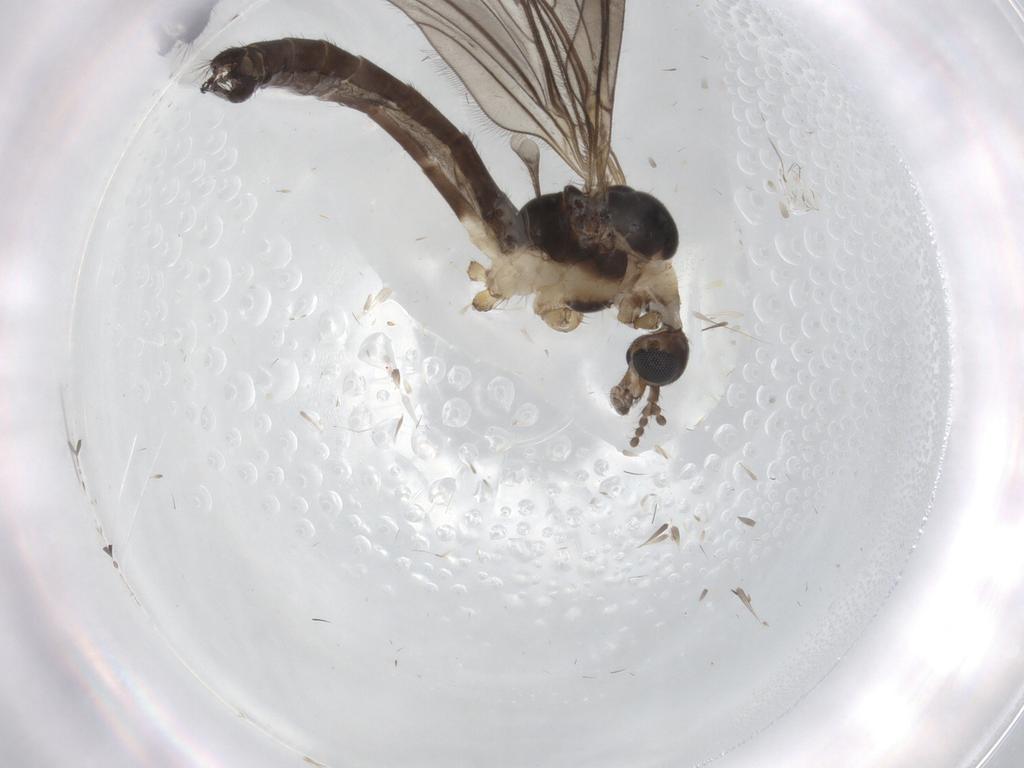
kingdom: Animalia
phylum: Arthropoda
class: Insecta
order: Diptera
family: Limoniidae
